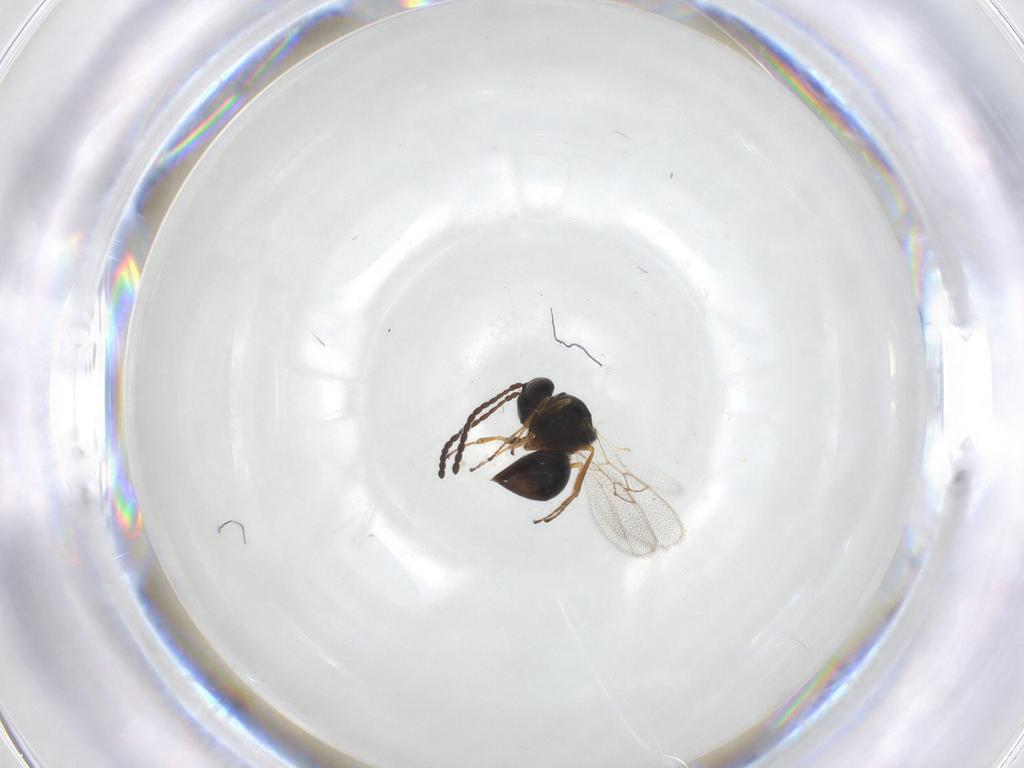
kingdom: Animalia
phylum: Arthropoda
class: Insecta
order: Hymenoptera
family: Figitidae
